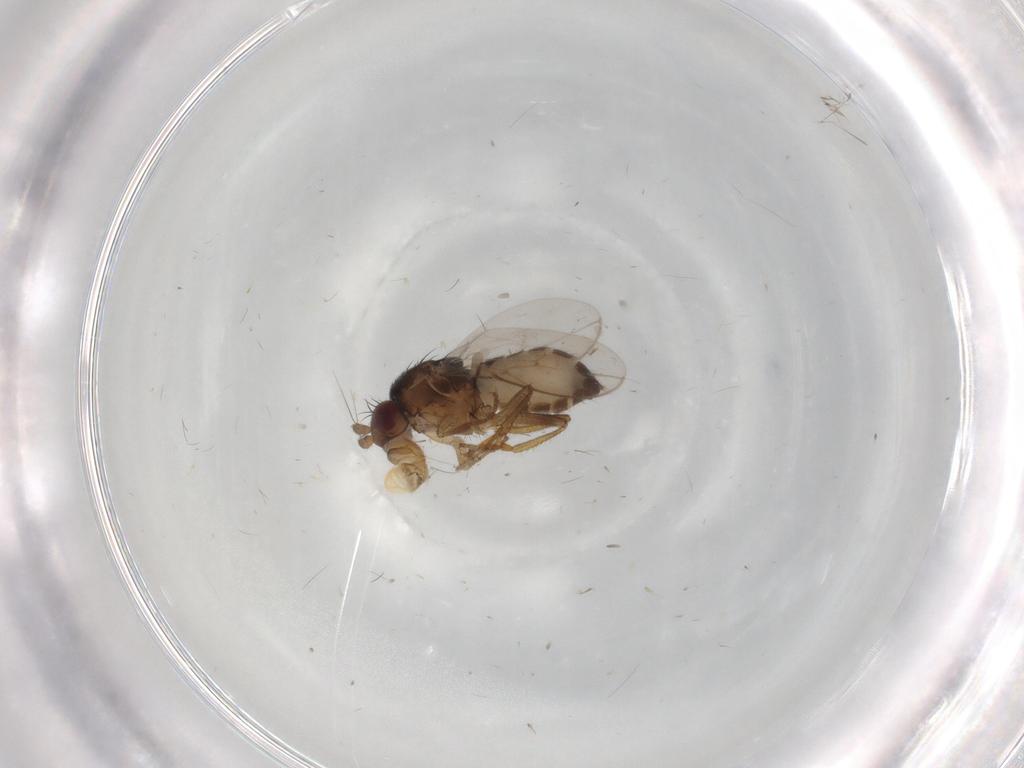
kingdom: Animalia
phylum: Arthropoda
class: Insecta
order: Diptera
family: Sphaeroceridae
